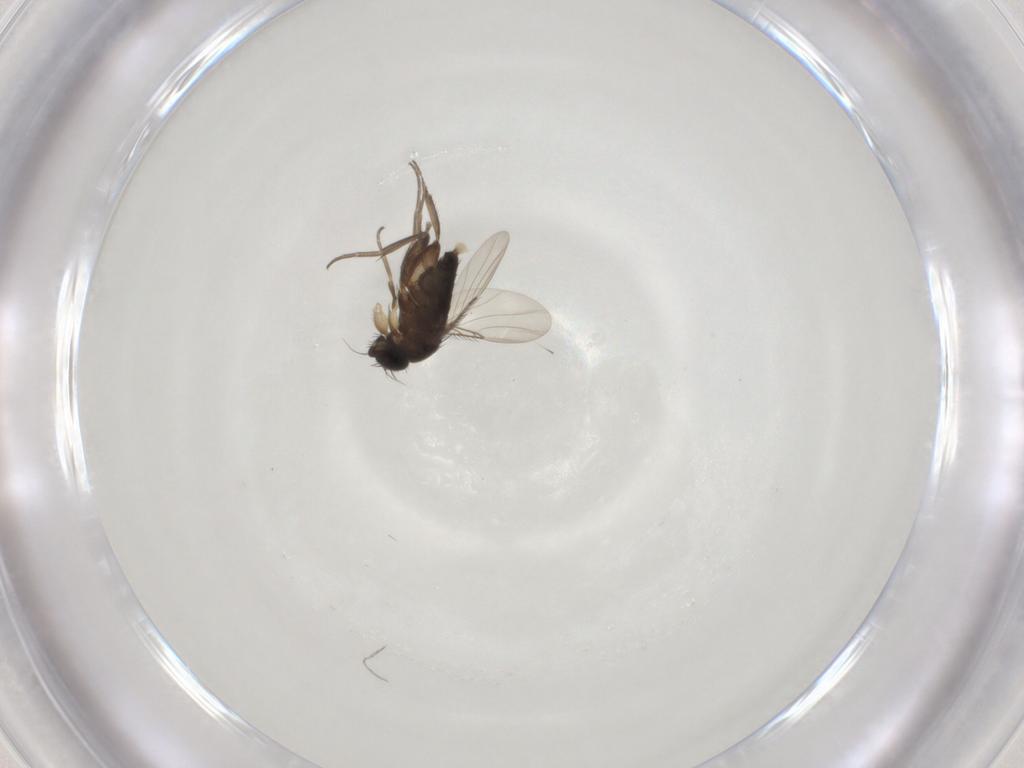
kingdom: Animalia
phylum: Arthropoda
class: Insecta
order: Diptera
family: Phoridae
